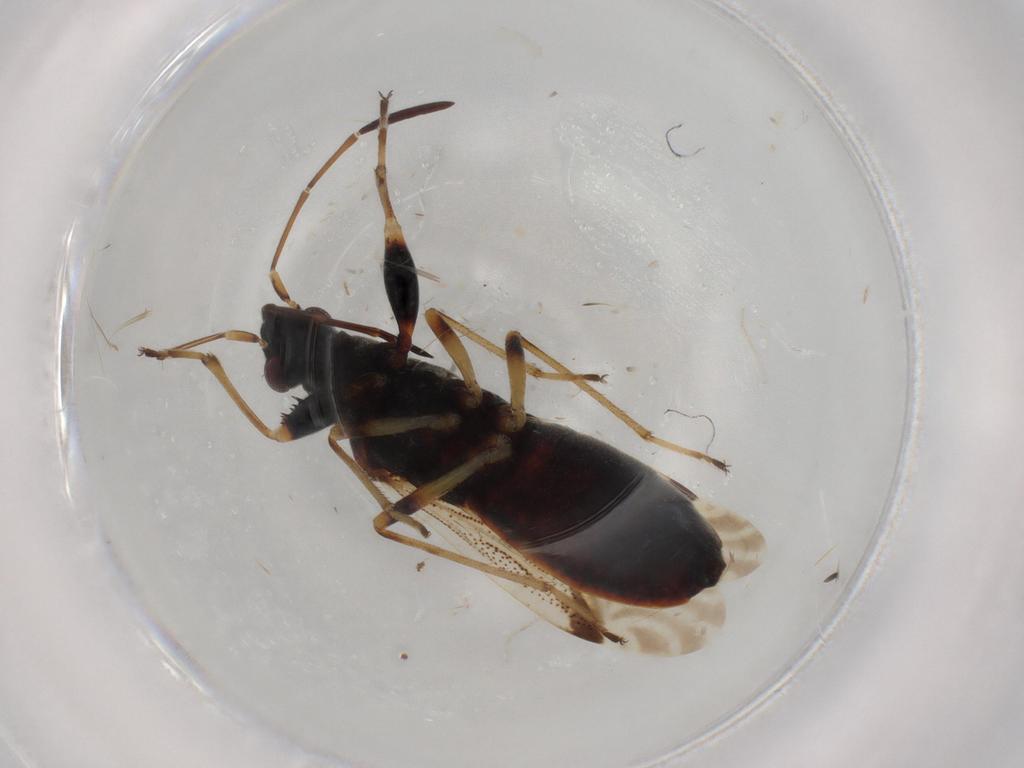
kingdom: Animalia
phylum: Arthropoda
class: Insecta
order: Hemiptera
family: Rhyparochromidae
